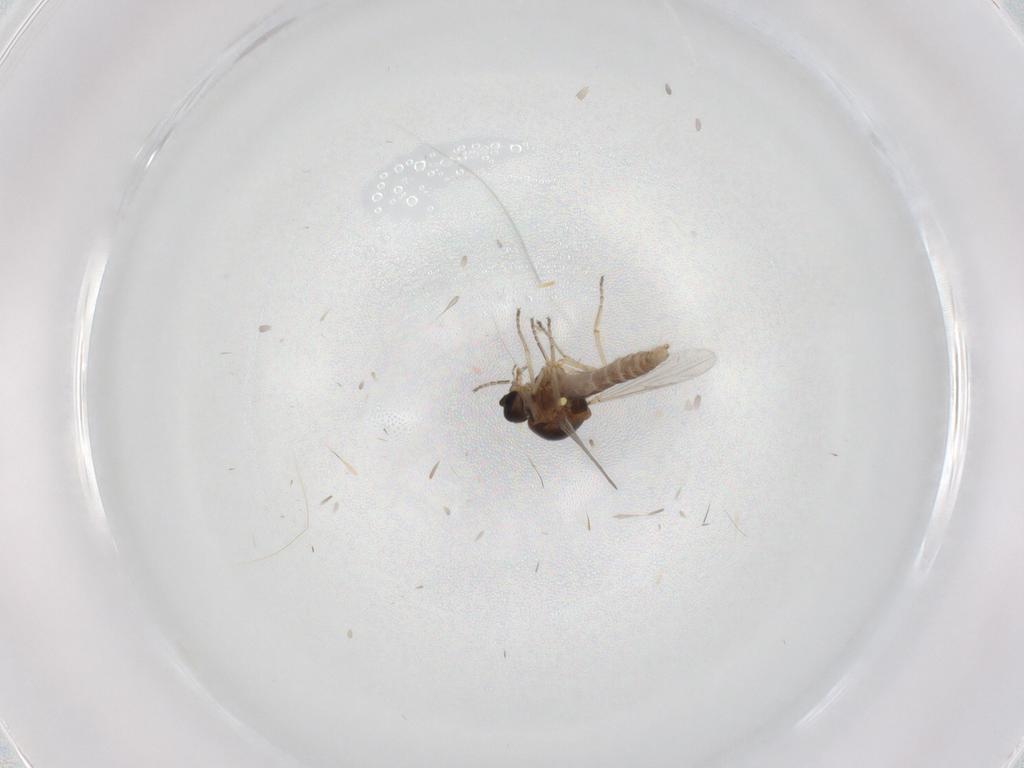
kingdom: Animalia
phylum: Arthropoda
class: Insecta
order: Diptera
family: Ceratopogonidae
